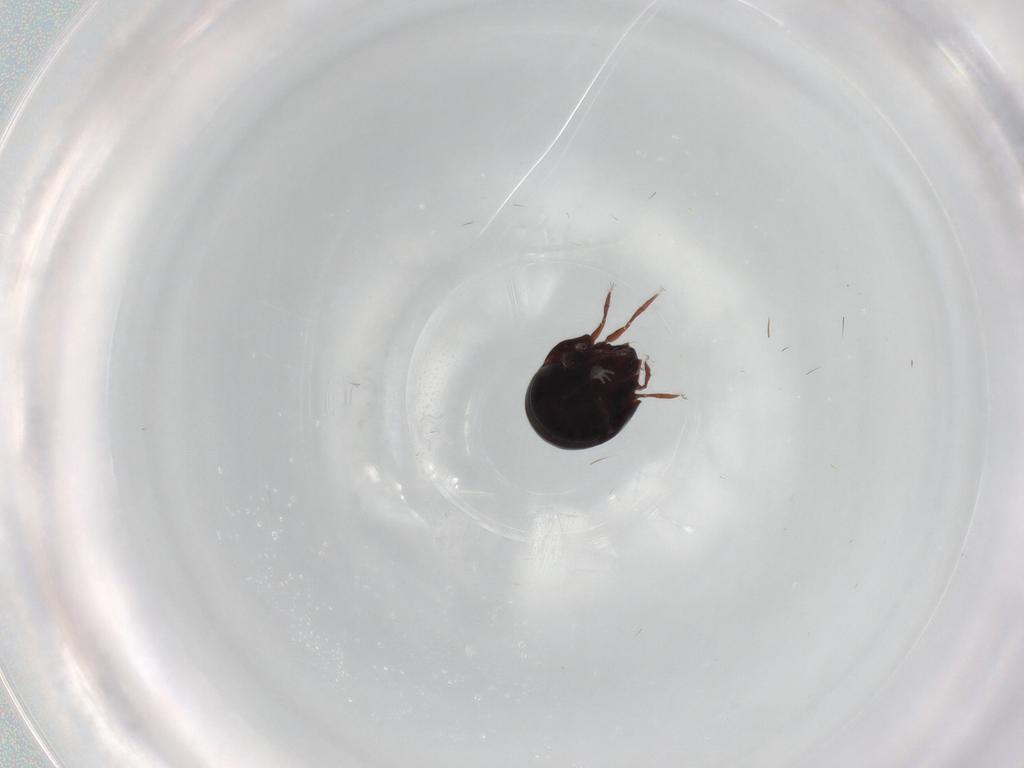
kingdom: Animalia
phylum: Arthropoda
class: Arachnida
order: Sarcoptiformes
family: Mochlozetidae
